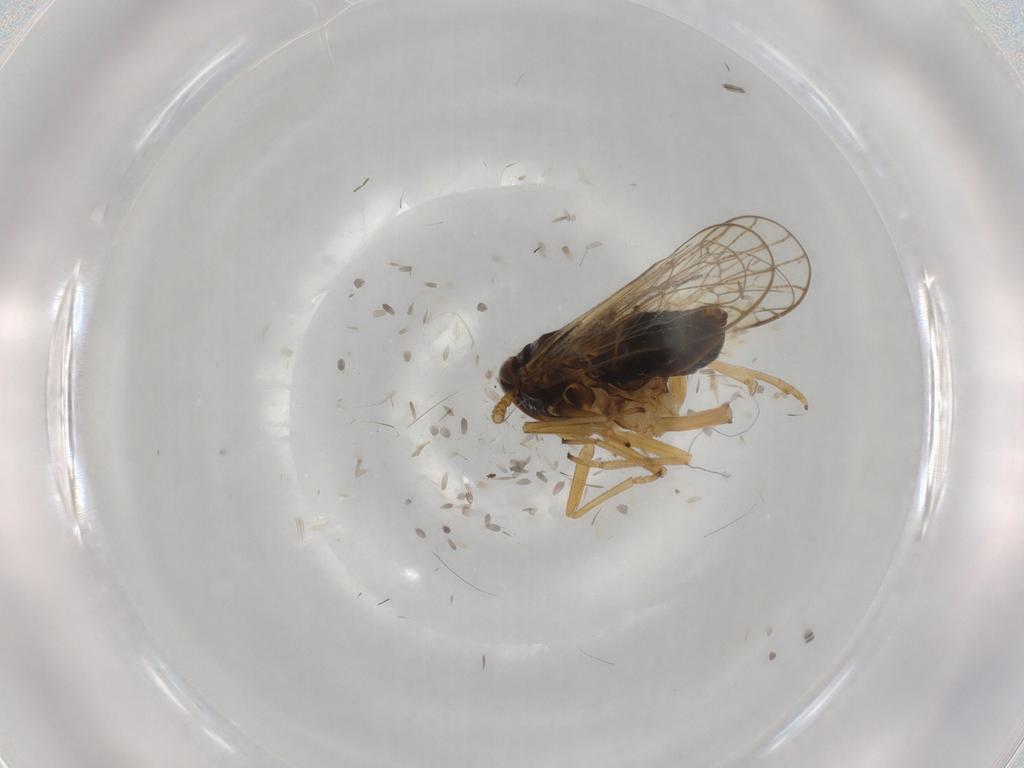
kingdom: Animalia
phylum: Arthropoda
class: Insecta
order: Hemiptera
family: Delphacidae
